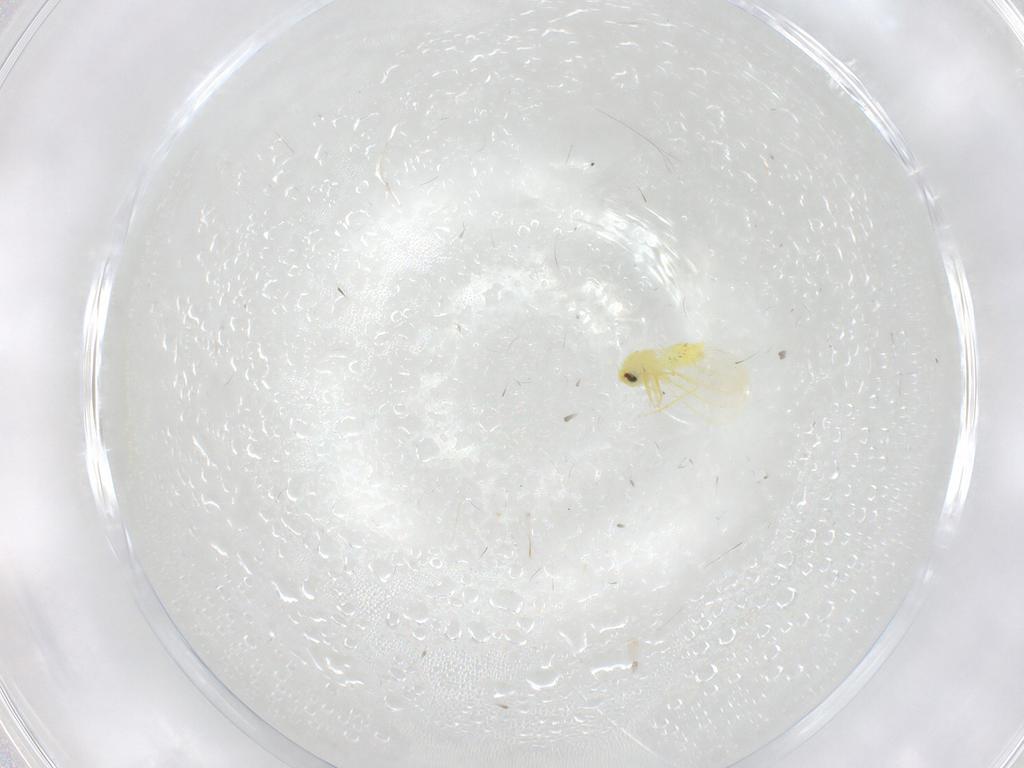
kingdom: Animalia
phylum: Arthropoda
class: Insecta
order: Hemiptera
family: Aleyrodidae
